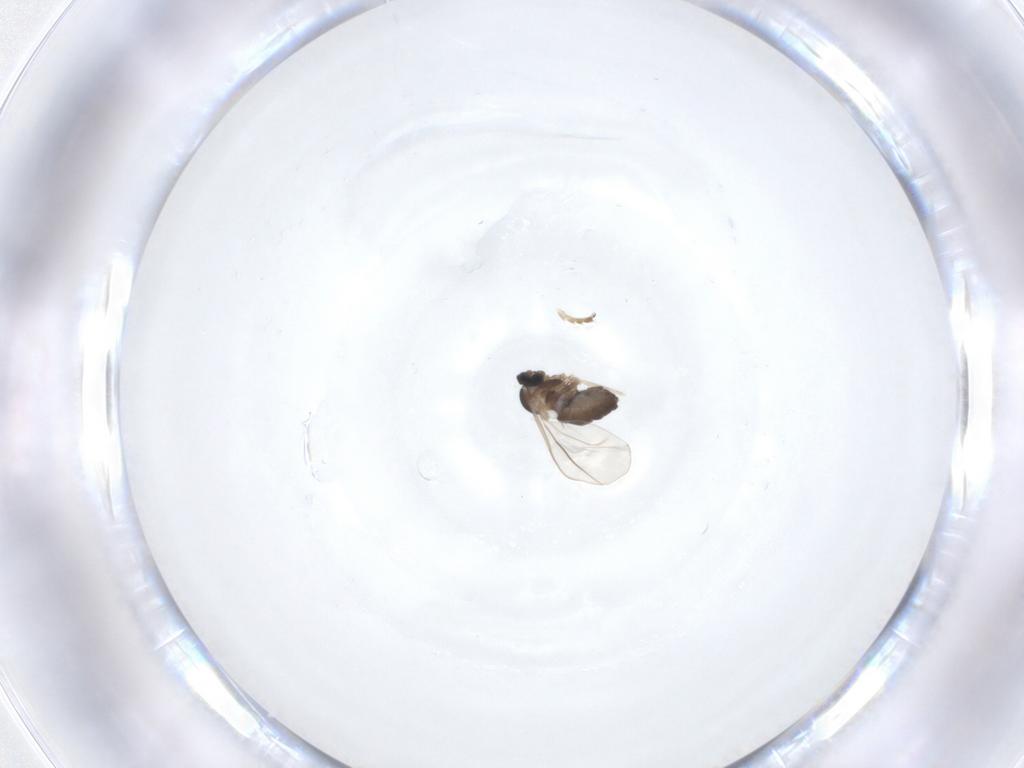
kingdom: Animalia
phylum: Arthropoda
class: Insecta
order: Diptera
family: Cecidomyiidae
